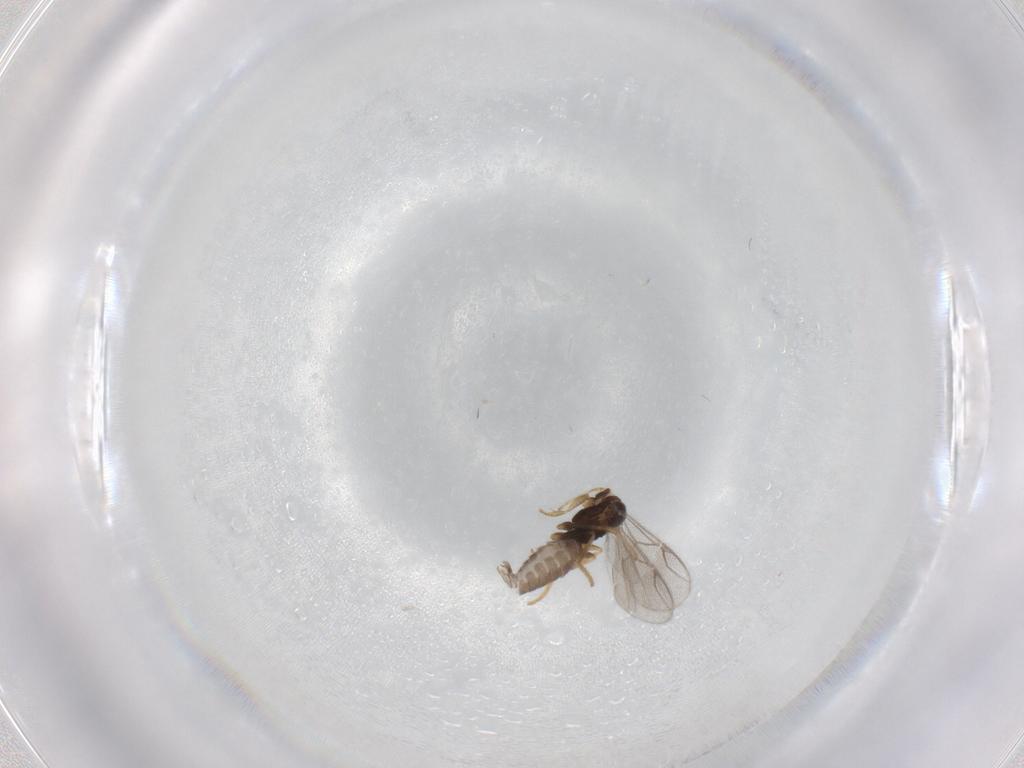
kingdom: Animalia
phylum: Arthropoda
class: Insecta
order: Hymenoptera
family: Dryinidae
